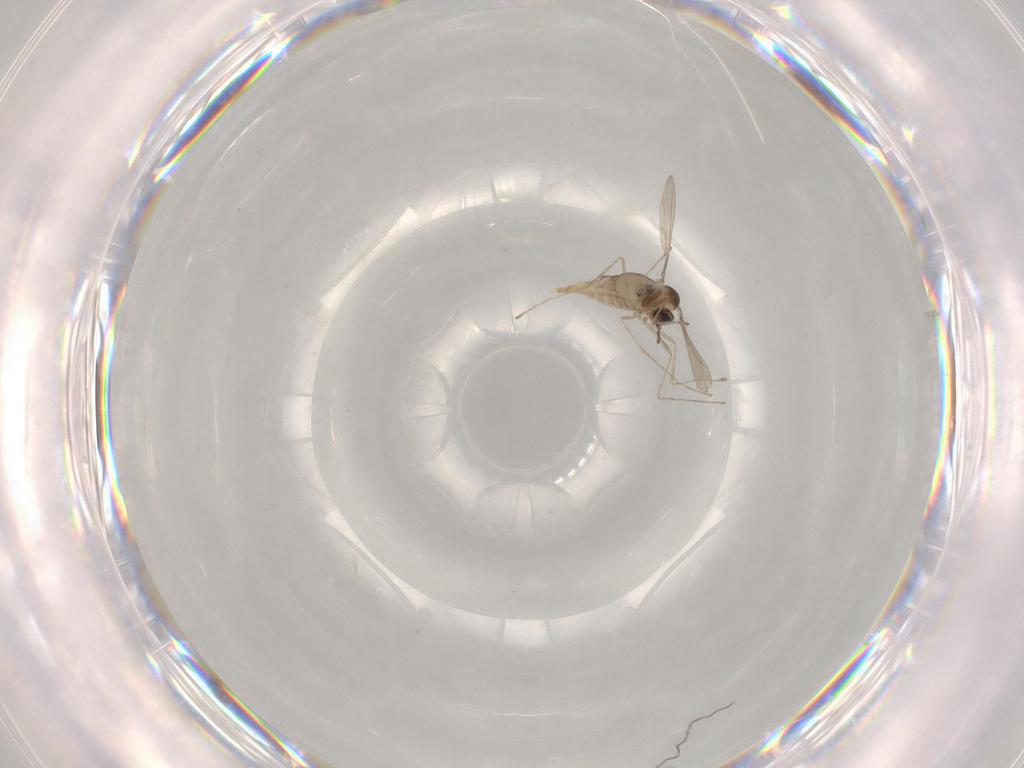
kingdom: Animalia
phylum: Arthropoda
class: Insecta
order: Diptera
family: Cecidomyiidae
